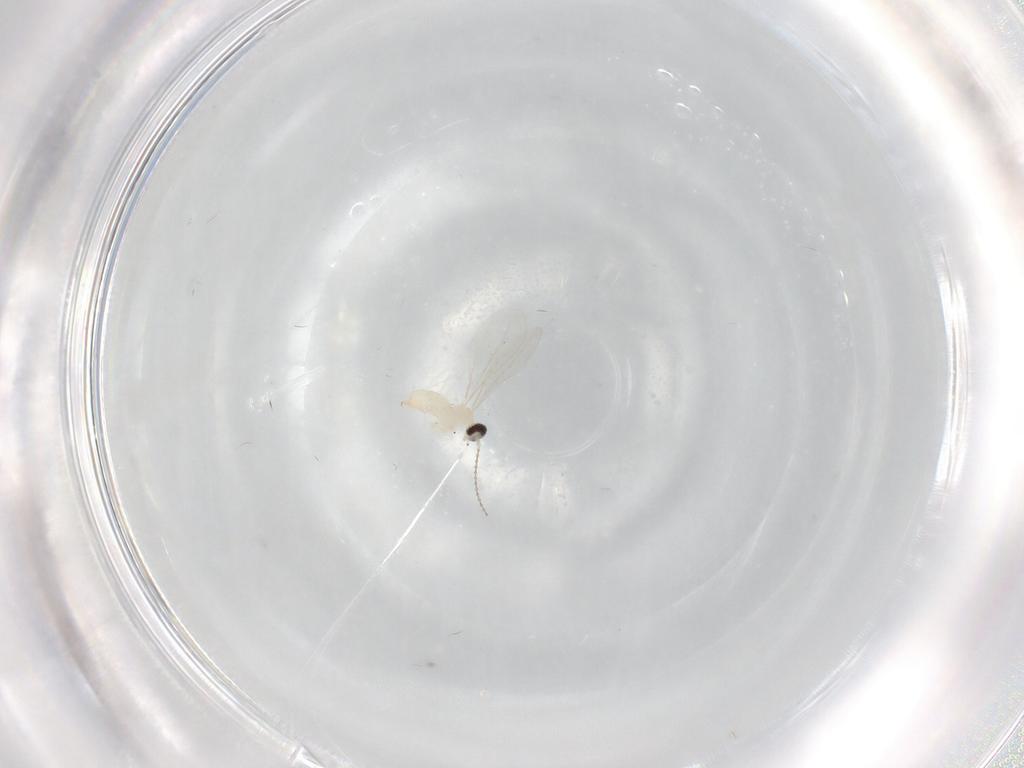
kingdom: Animalia
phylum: Arthropoda
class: Insecta
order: Diptera
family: Cecidomyiidae
